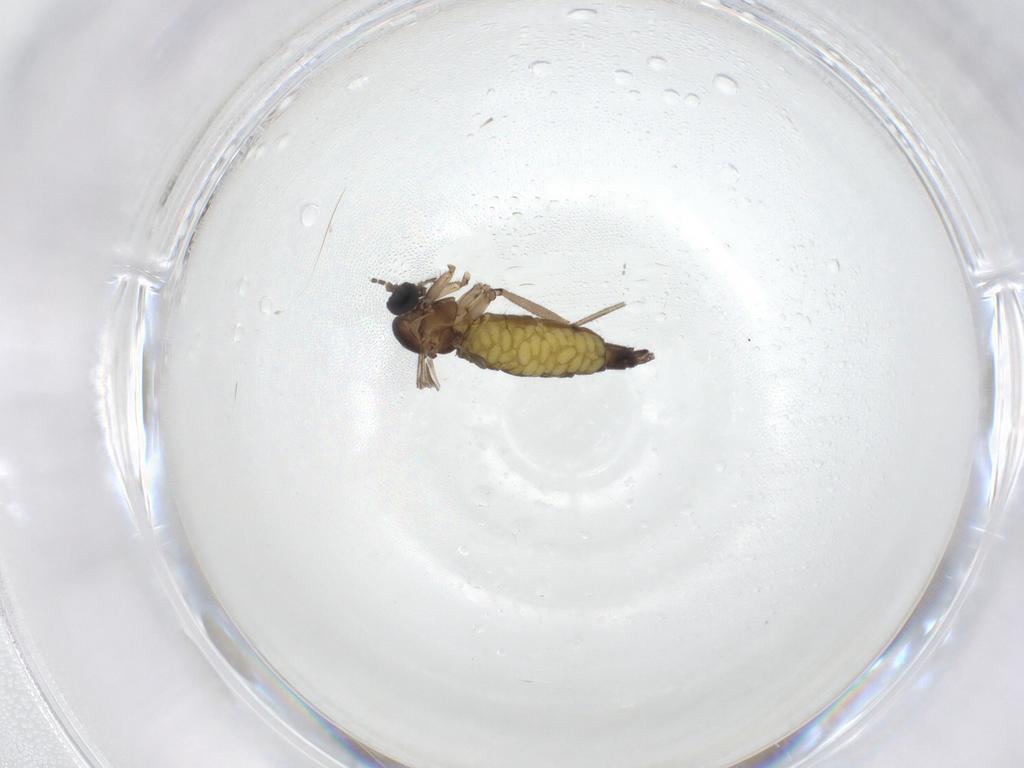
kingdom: Animalia
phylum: Arthropoda
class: Insecta
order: Diptera
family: Sciaridae
